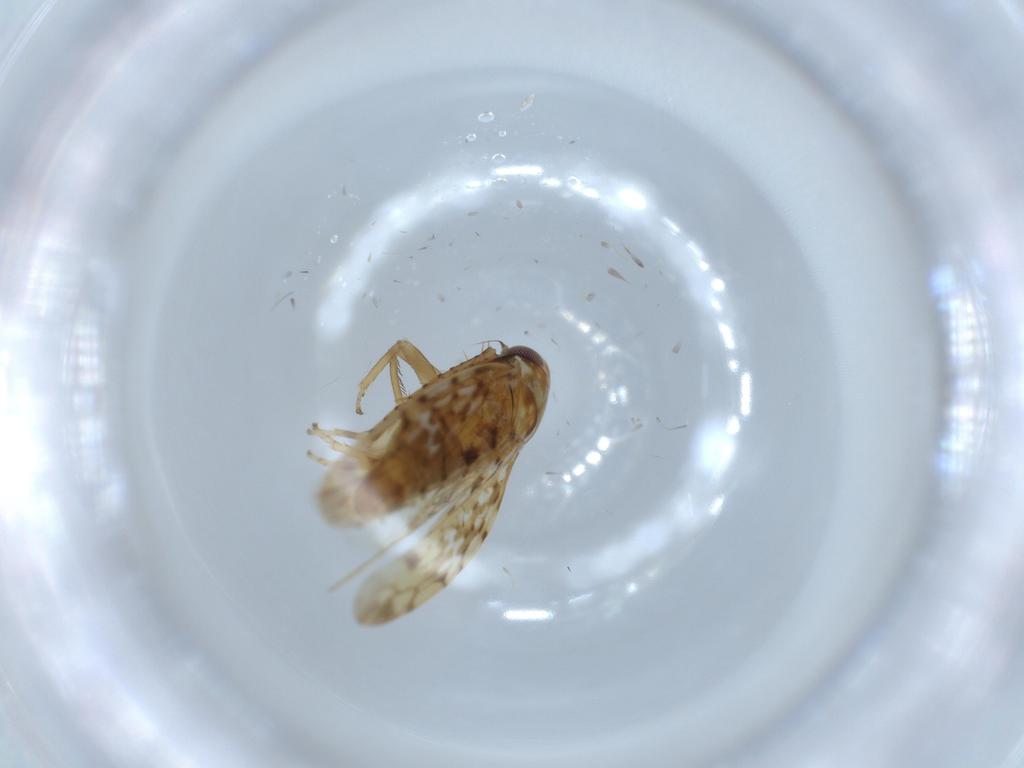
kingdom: Animalia
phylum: Arthropoda
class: Insecta
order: Hemiptera
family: Cicadellidae
